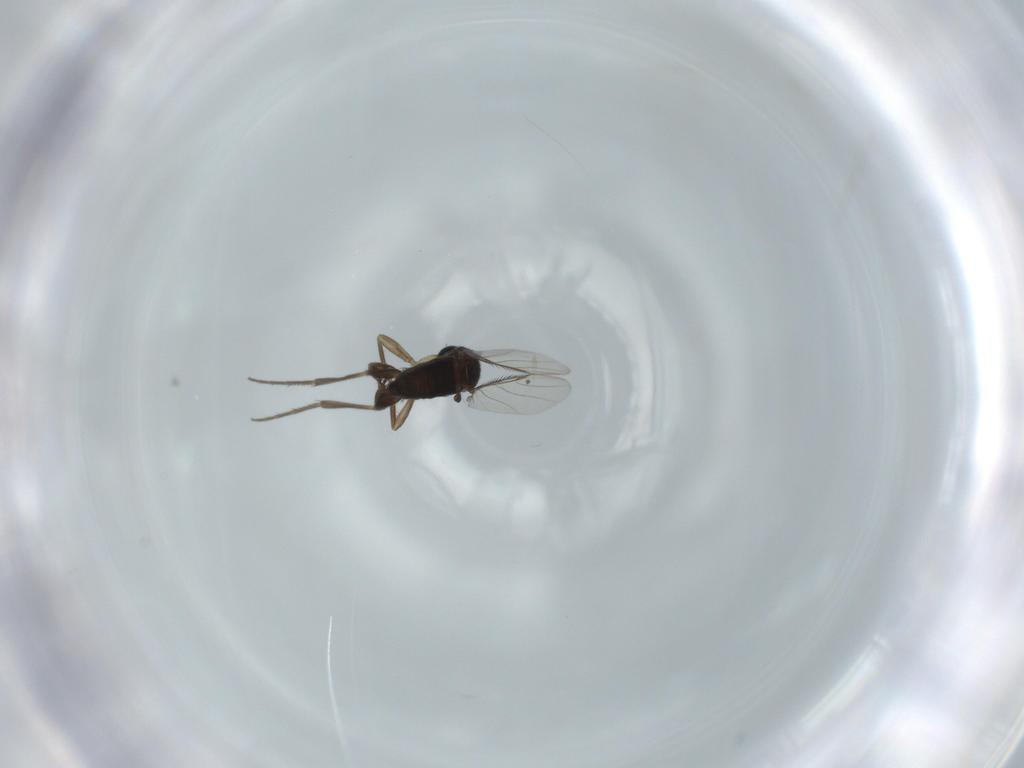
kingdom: Animalia
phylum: Arthropoda
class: Insecta
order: Diptera
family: Phoridae
